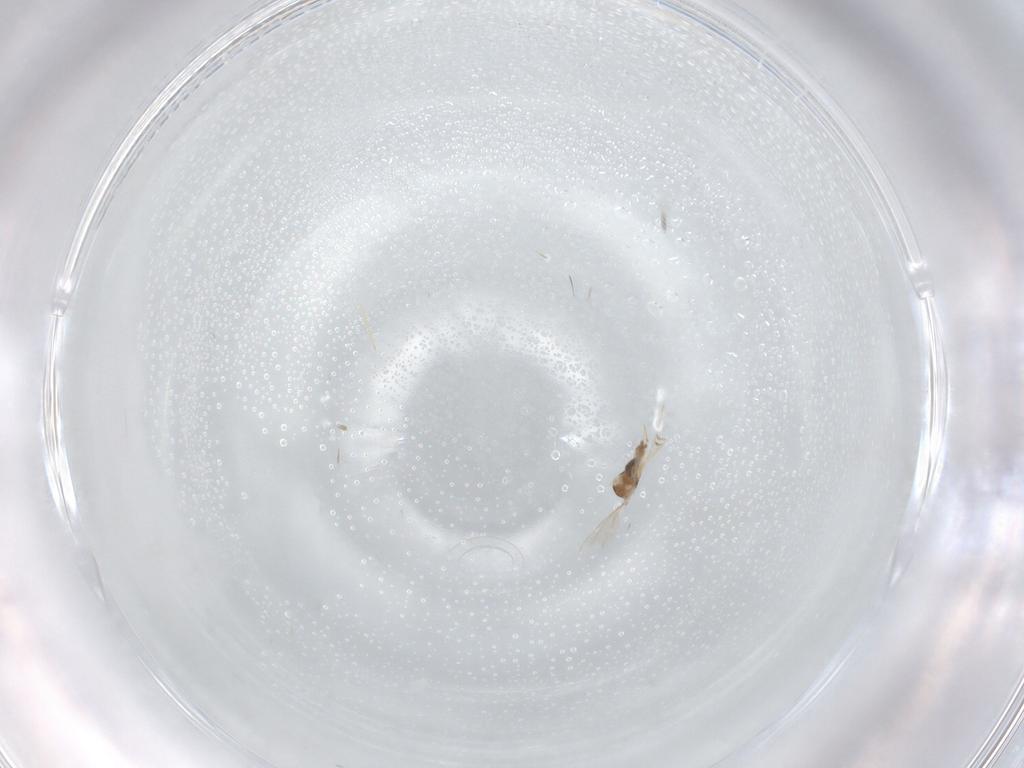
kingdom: Animalia
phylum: Arthropoda
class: Insecta
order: Diptera
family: Cecidomyiidae
